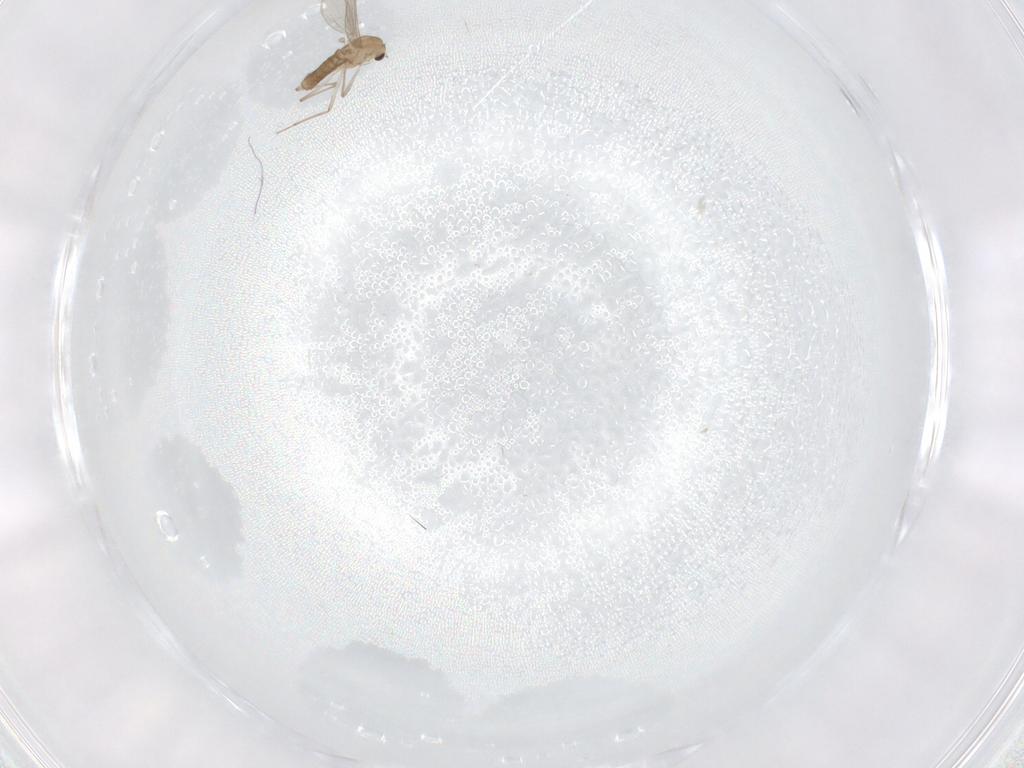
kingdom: Animalia
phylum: Arthropoda
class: Insecta
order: Diptera
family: Chironomidae
